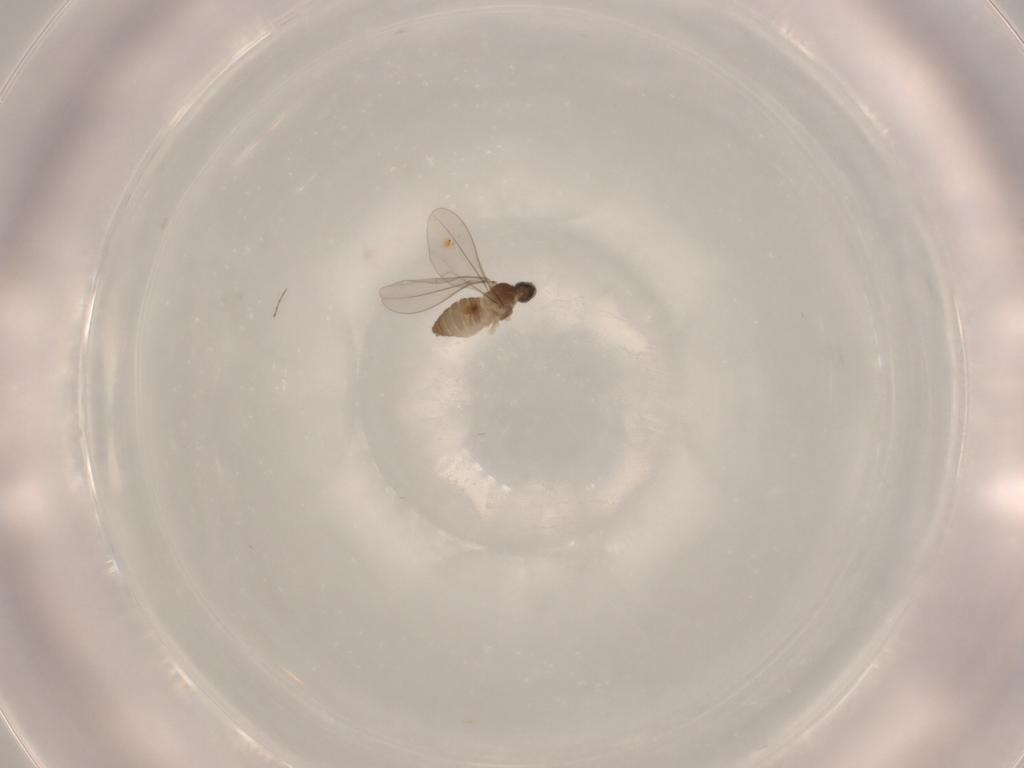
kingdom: Animalia
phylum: Arthropoda
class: Insecta
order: Diptera
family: Cecidomyiidae
